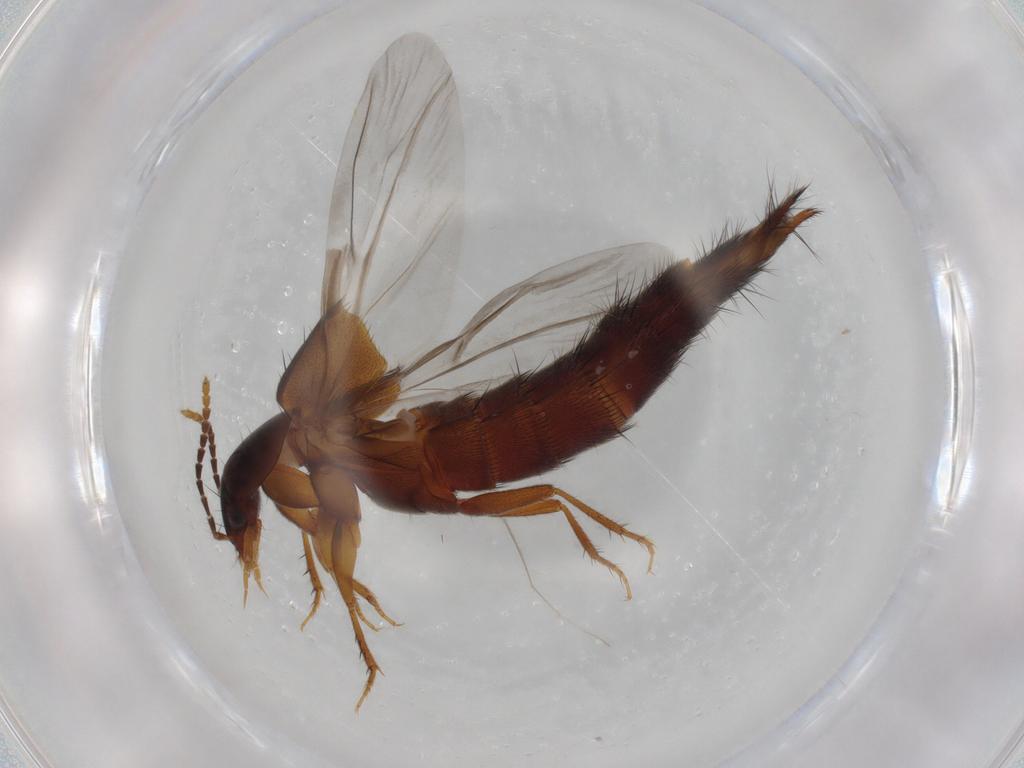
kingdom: Animalia
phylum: Arthropoda
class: Insecta
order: Coleoptera
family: Staphylinidae
